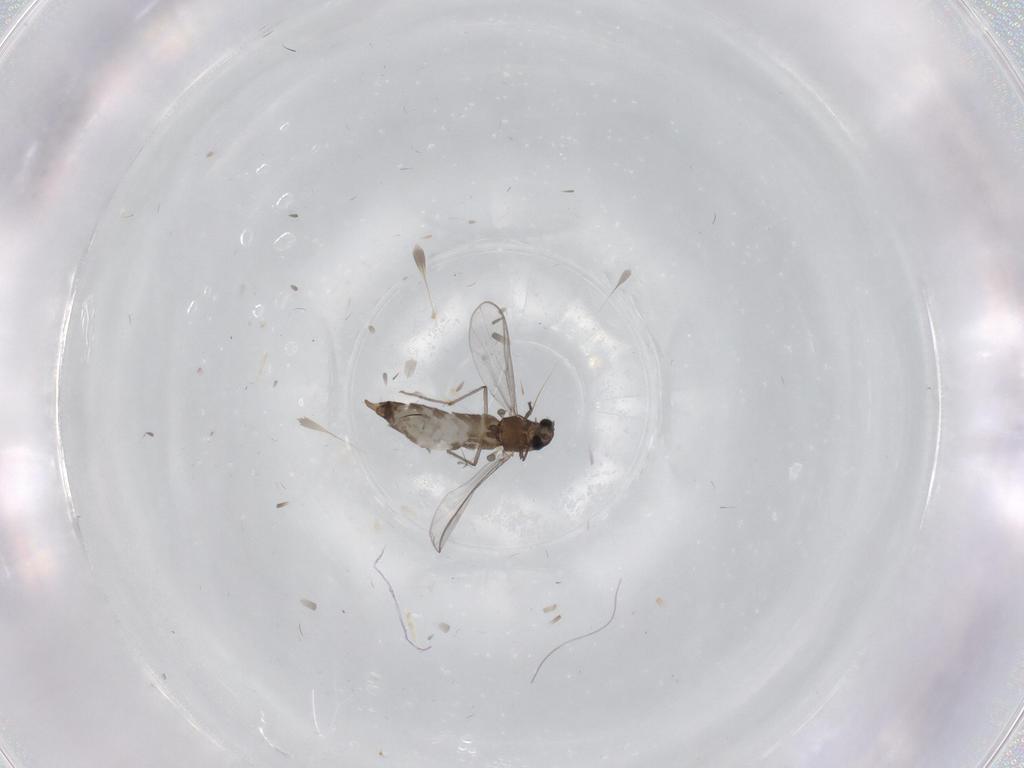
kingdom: Animalia
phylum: Arthropoda
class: Insecta
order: Diptera
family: Chironomidae
